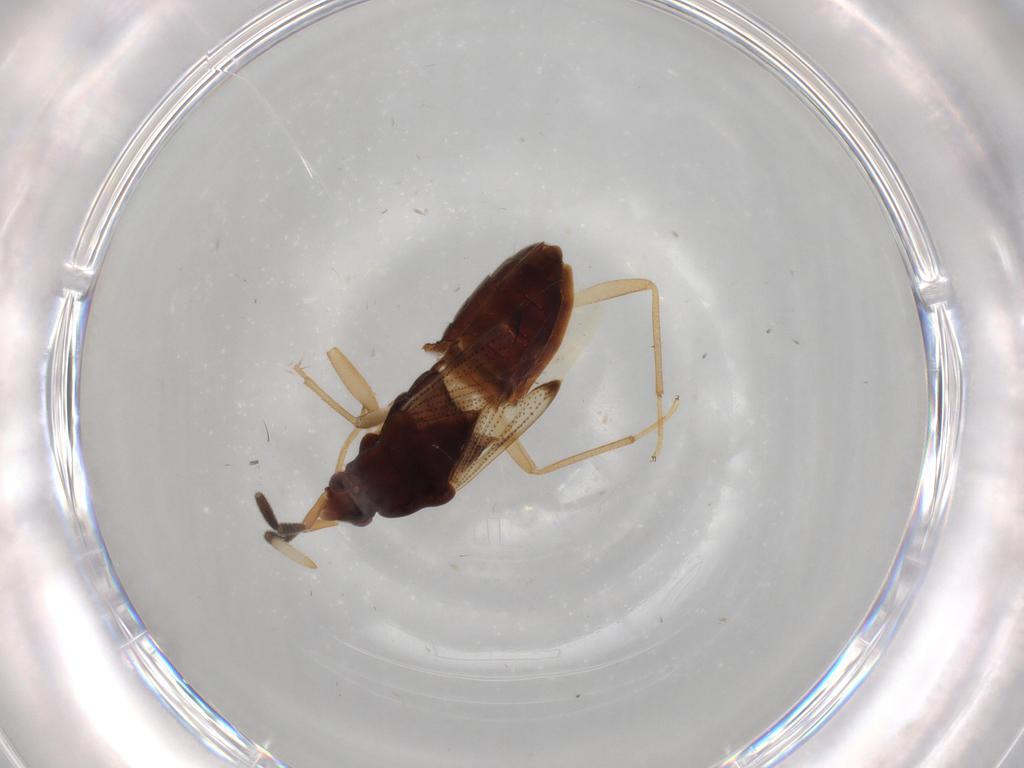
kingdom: Animalia
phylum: Arthropoda
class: Insecta
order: Hemiptera
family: Rhyparochromidae
